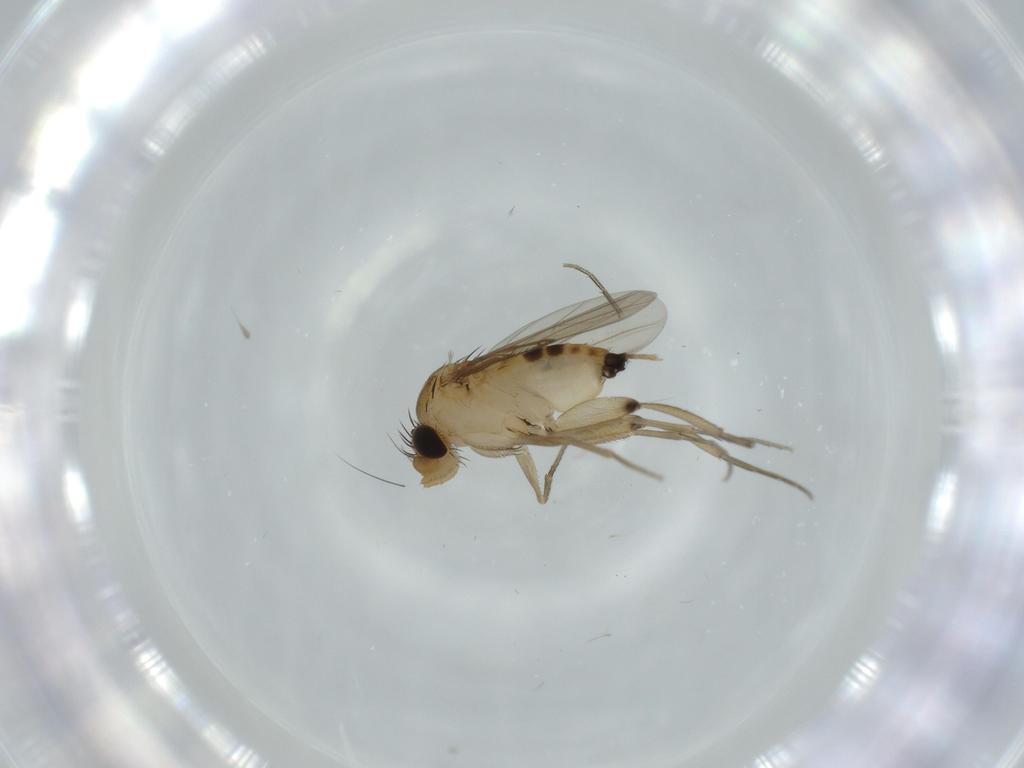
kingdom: Animalia
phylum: Arthropoda
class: Insecta
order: Diptera
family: Phoridae
